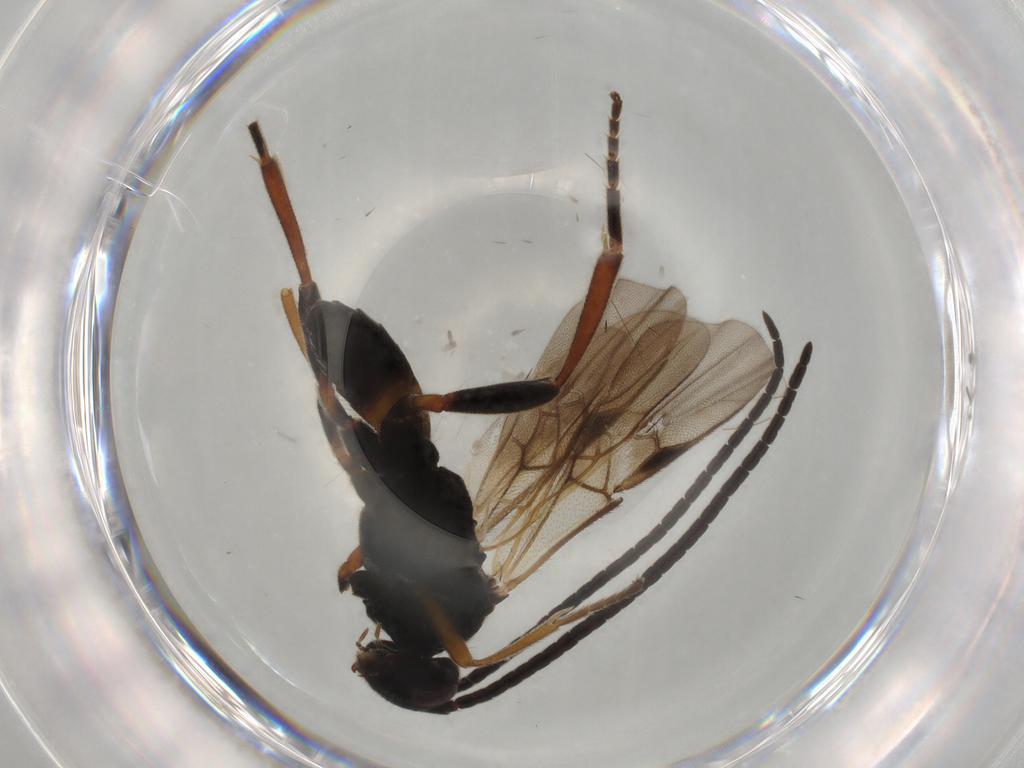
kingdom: Animalia
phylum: Arthropoda
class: Insecta
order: Hymenoptera
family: Braconidae
